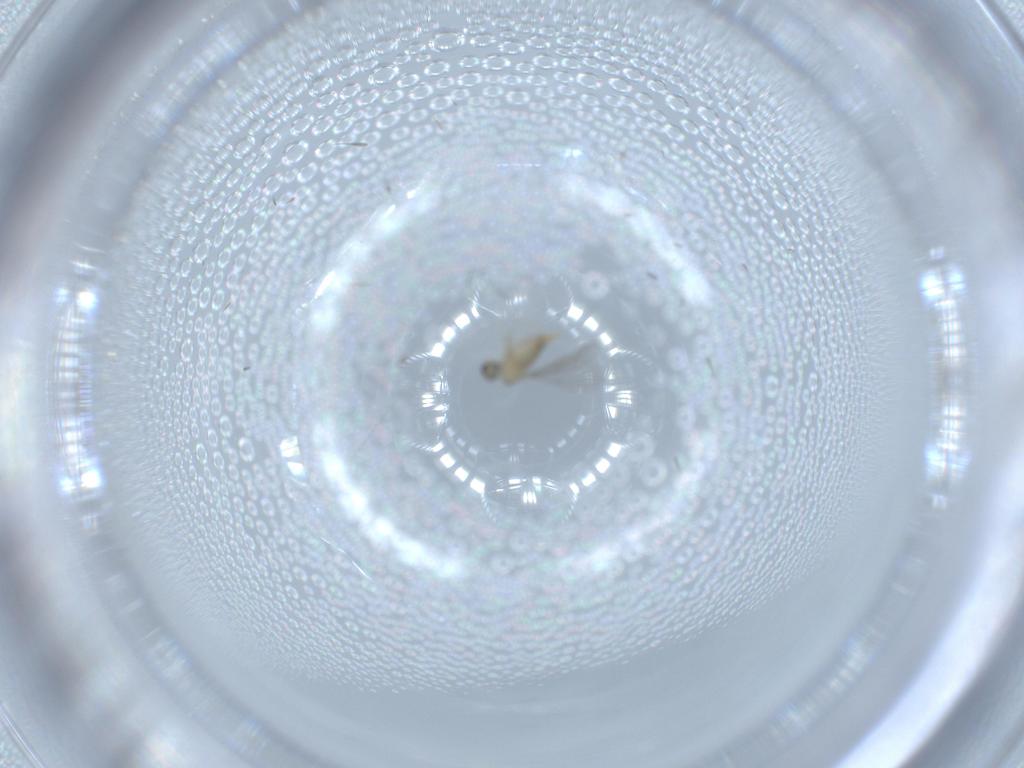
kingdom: Animalia
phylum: Arthropoda
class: Insecta
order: Diptera
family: Cecidomyiidae
